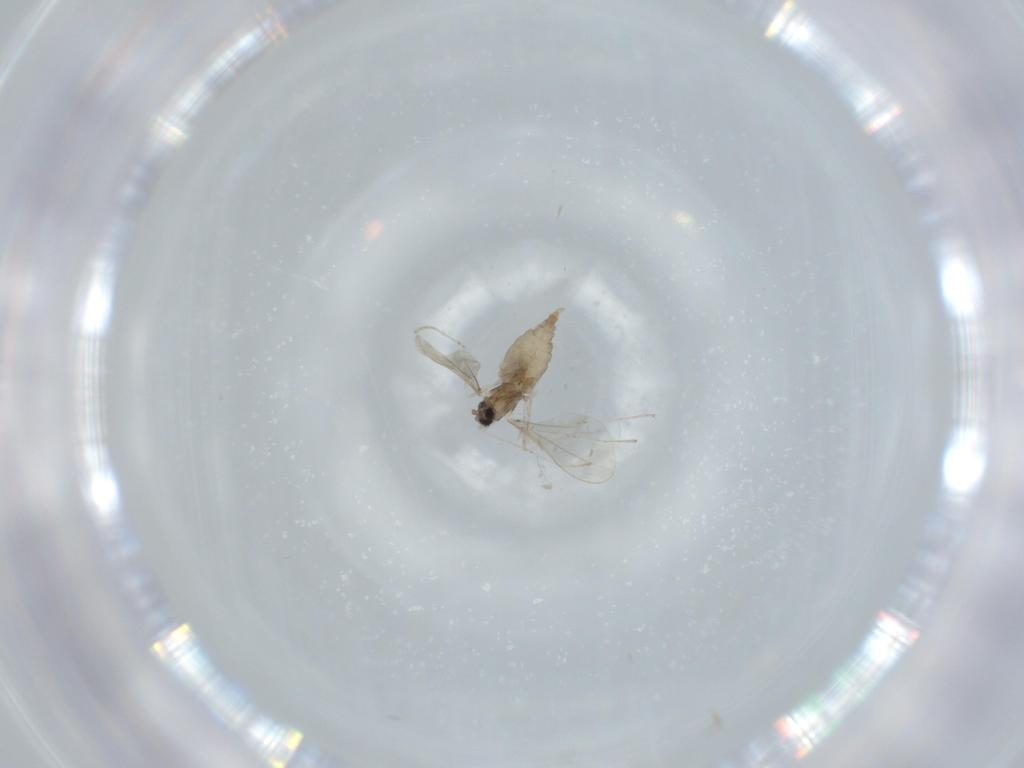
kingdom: Animalia
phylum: Arthropoda
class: Insecta
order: Diptera
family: Cecidomyiidae
